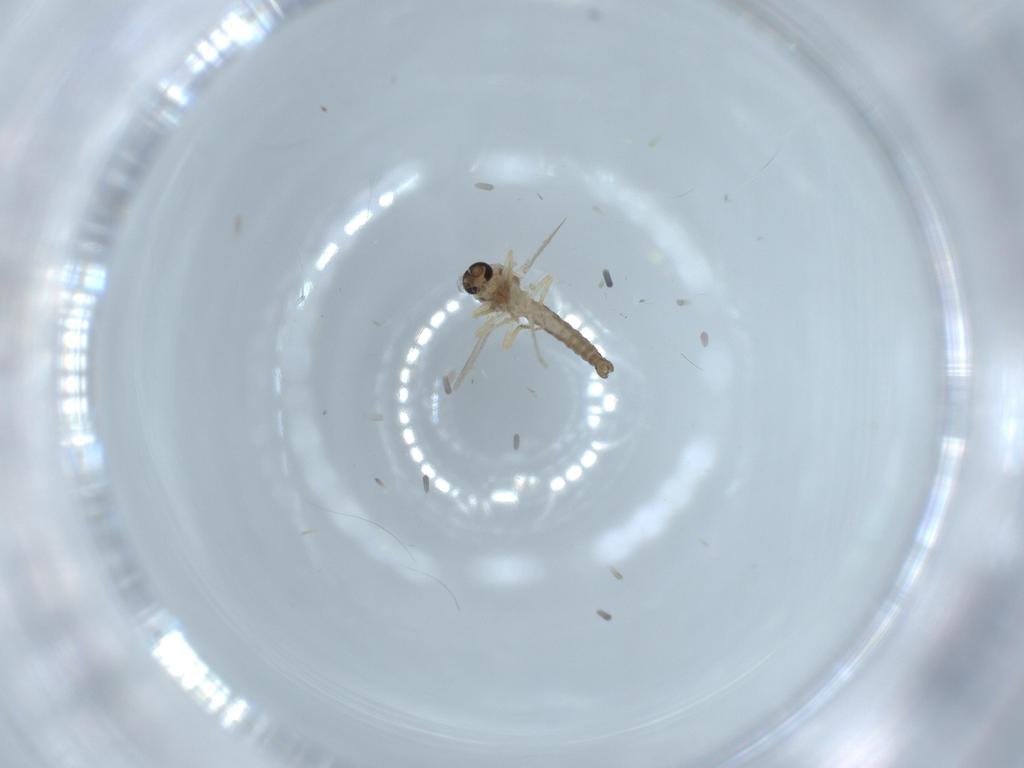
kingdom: Animalia
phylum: Arthropoda
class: Insecta
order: Diptera
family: Ceratopogonidae
